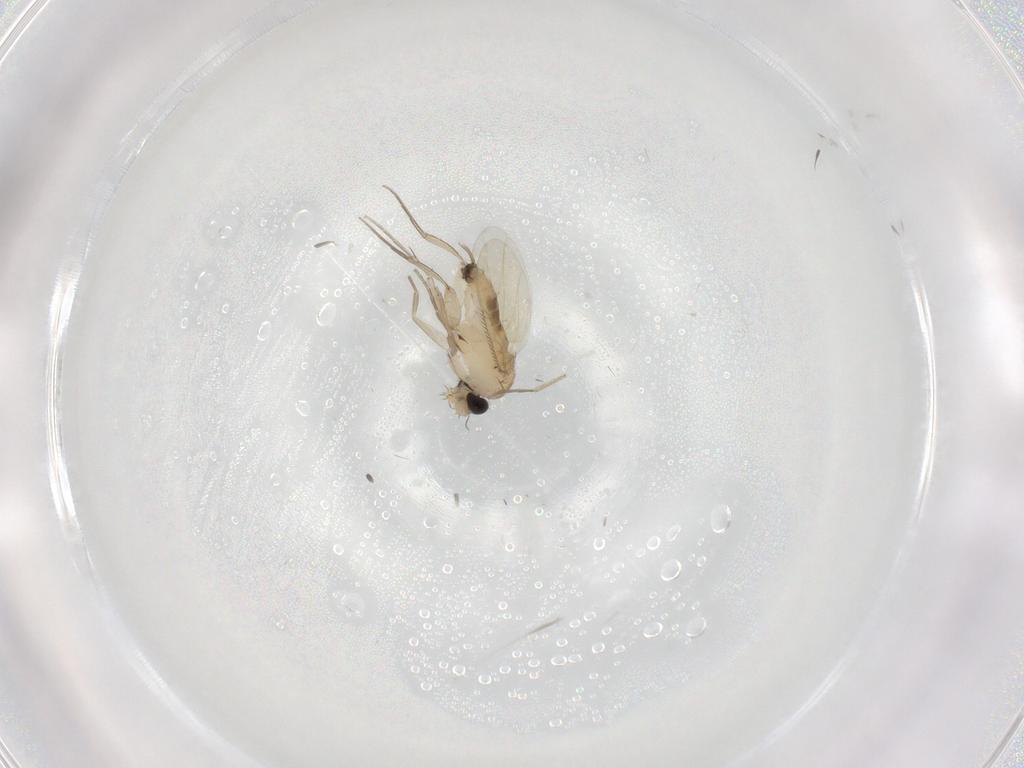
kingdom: Animalia
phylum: Arthropoda
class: Insecta
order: Diptera
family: Phoridae
